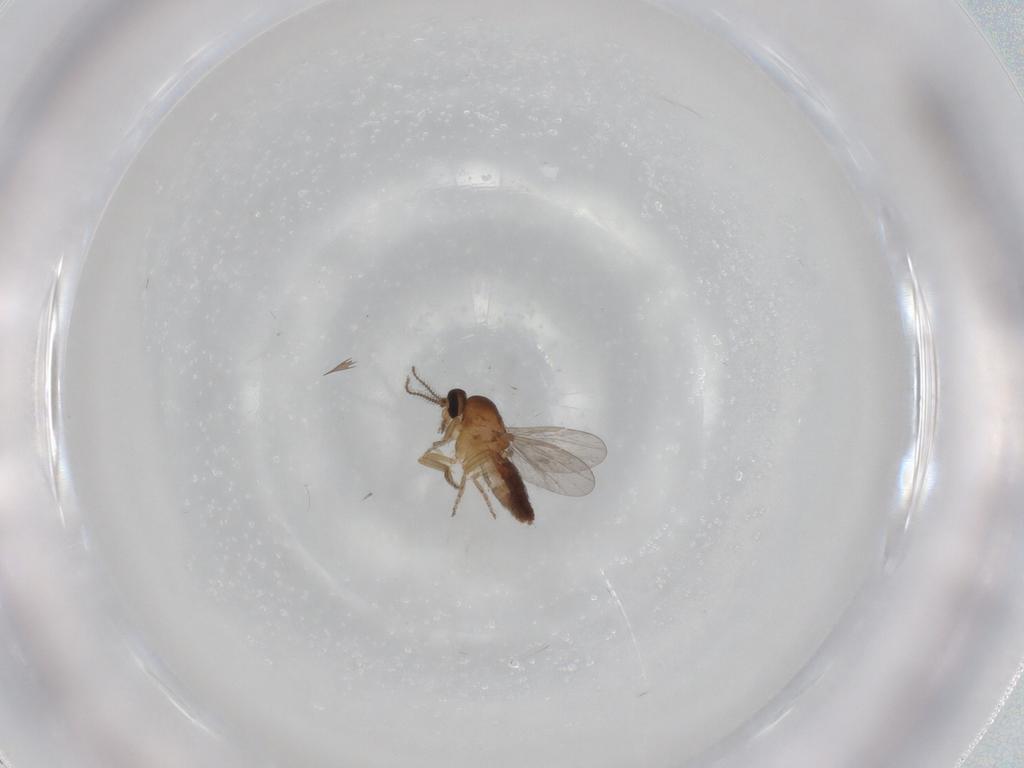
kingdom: Animalia
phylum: Arthropoda
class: Insecta
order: Diptera
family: Ceratopogonidae
